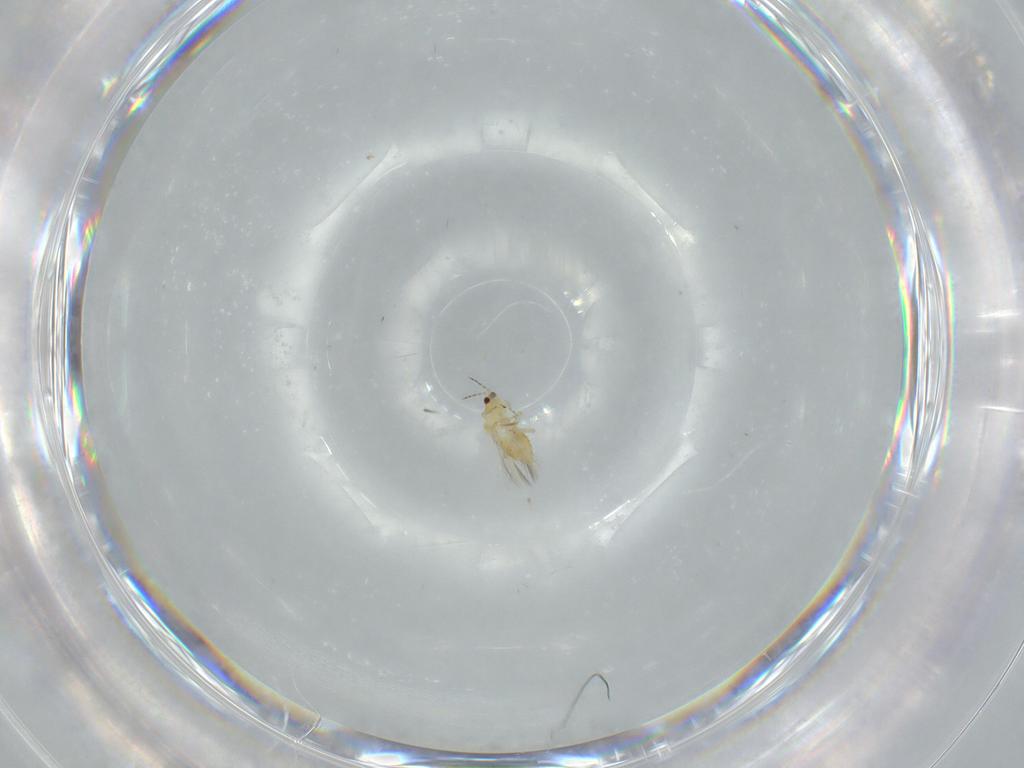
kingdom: Animalia
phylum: Arthropoda
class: Insecta
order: Thysanoptera
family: Thripidae
